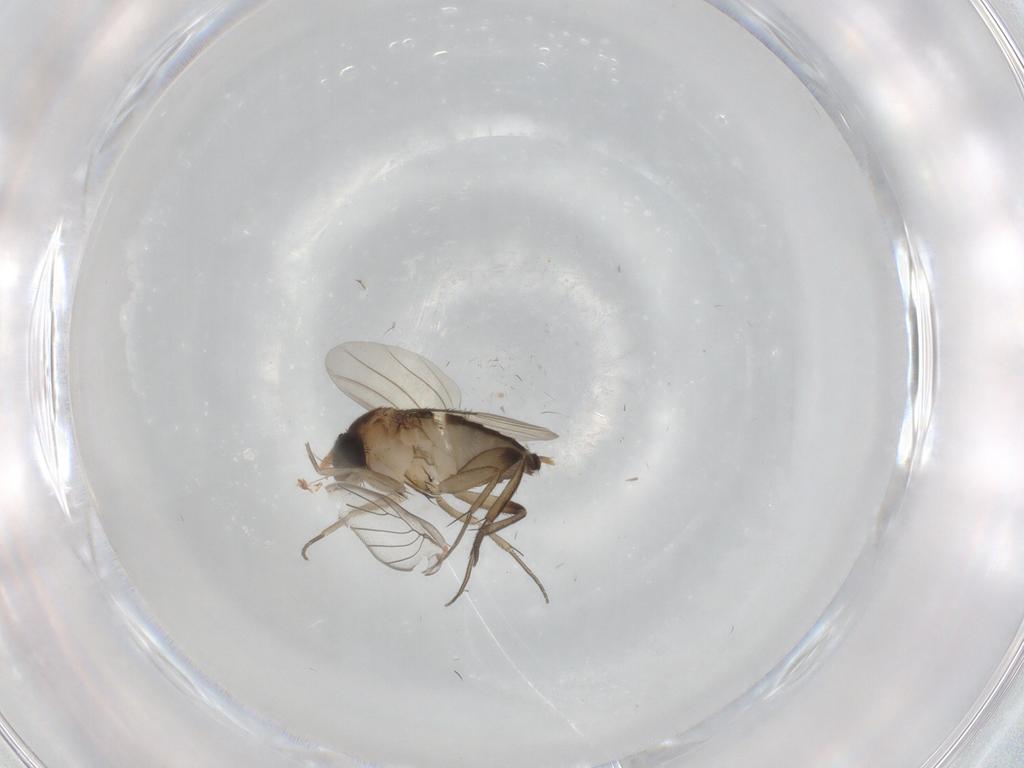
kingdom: Animalia
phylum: Arthropoda
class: Insecta
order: Diptera
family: Phoridae
